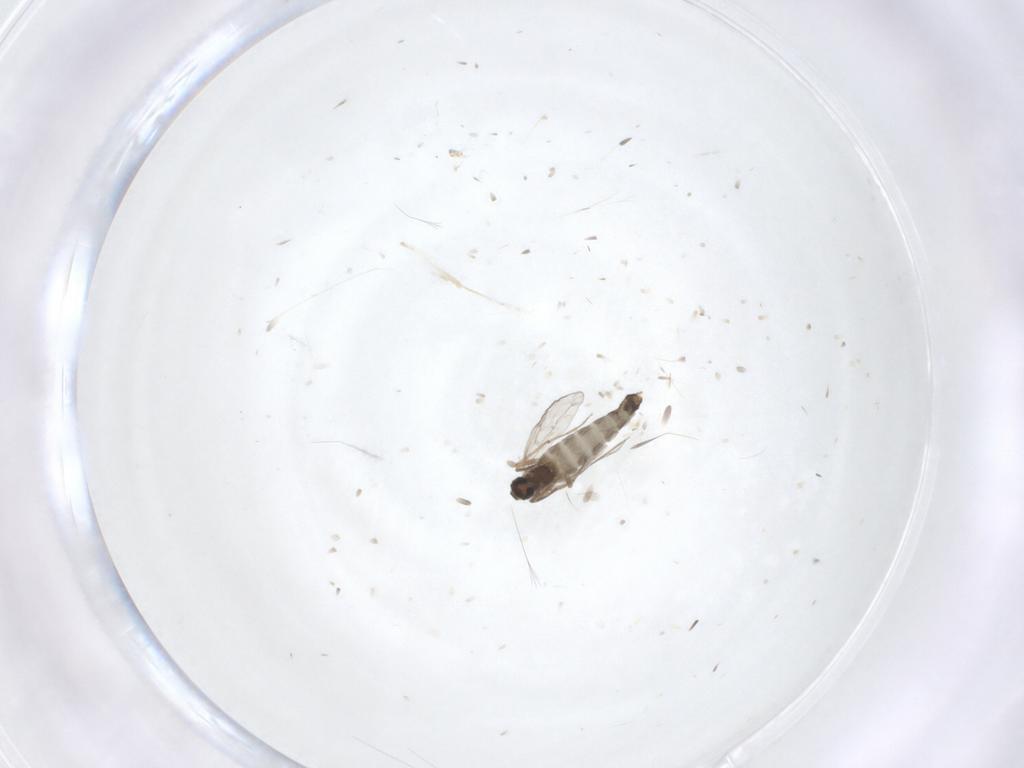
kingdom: Animalia
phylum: Arthropoda
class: Insecta
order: Diptera
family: Chironomidae
